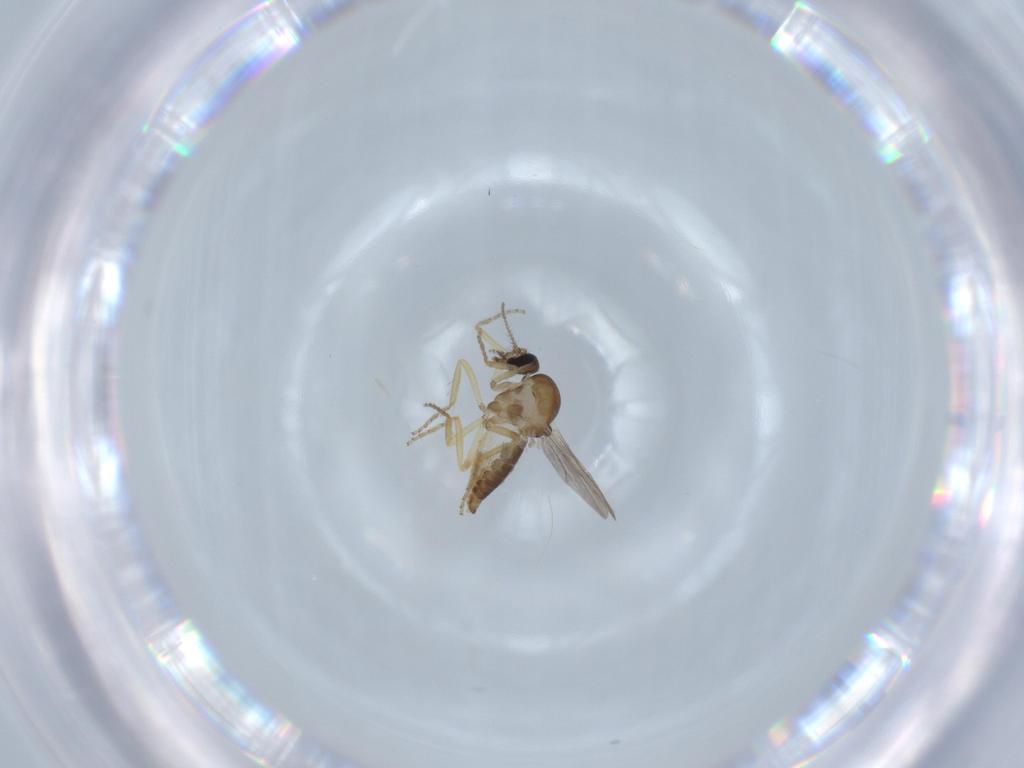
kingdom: Animalia
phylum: Arthropoda
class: Insecta
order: Diptera
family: Ceratopogonidae
